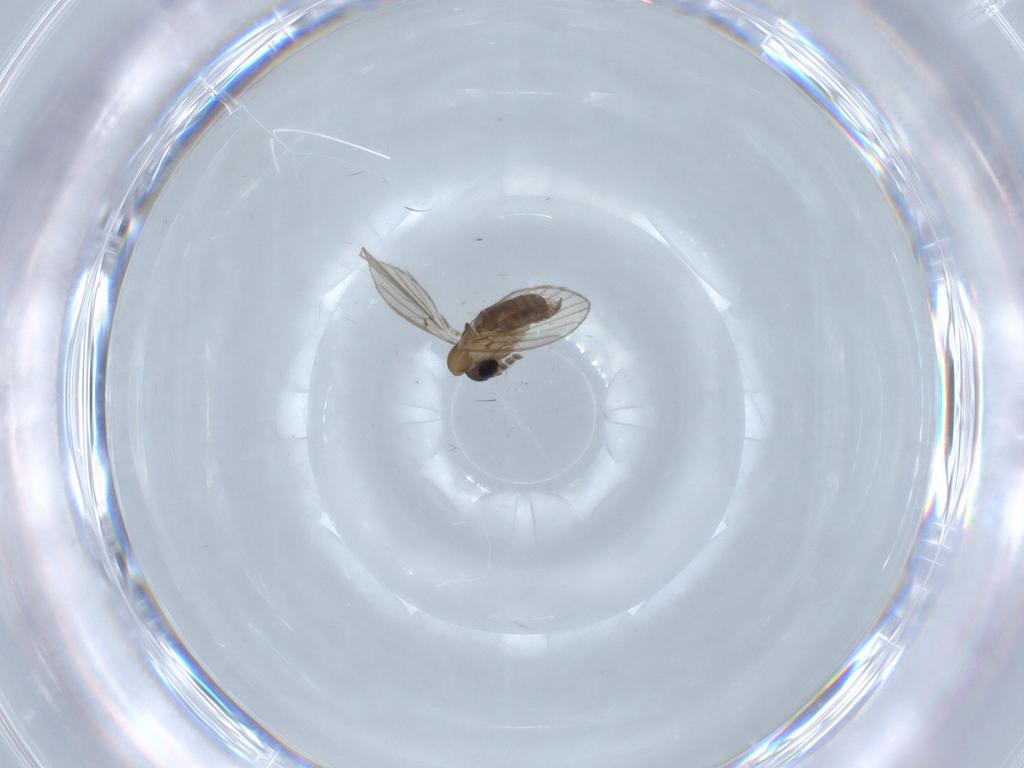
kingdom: Animalia
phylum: Arthropoda
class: Insecta
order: Diptera
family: Psychodidae
